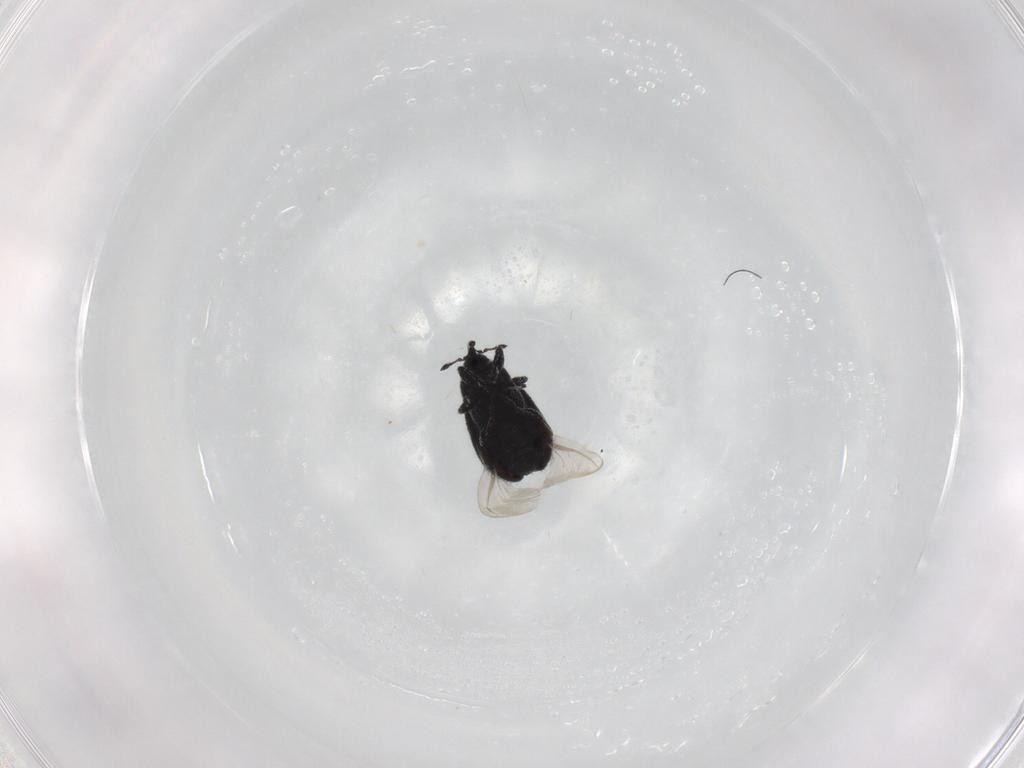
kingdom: Animalia
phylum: Arthropoda
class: Insecta
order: Coleoptera
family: Curculionidae
